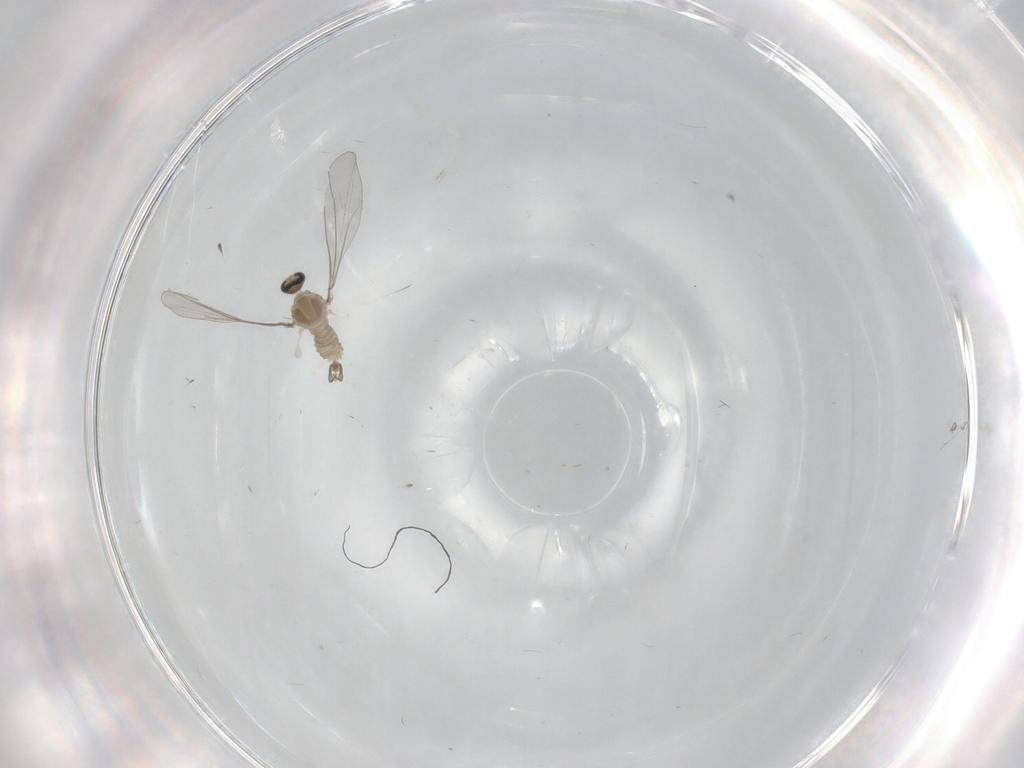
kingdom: Animalia
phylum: Arthropoda
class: Insecta
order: Diptera
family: Cecidomyiidae
